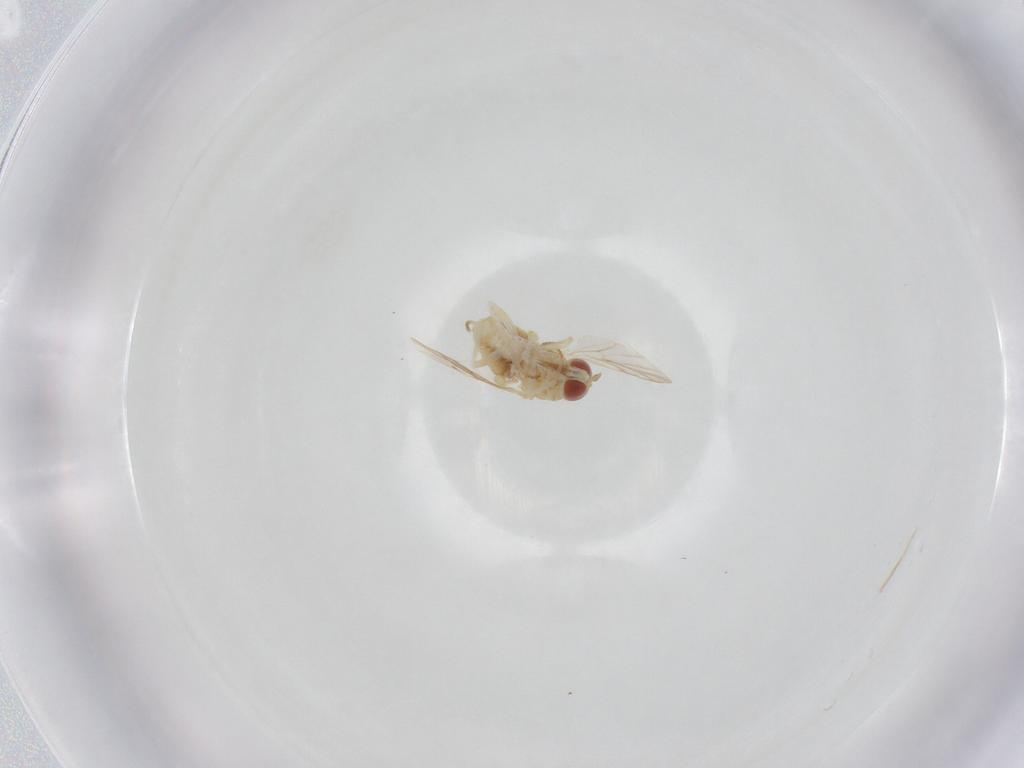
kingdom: Animalia
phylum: Arthropoda
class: Insecta
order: Diptera
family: Bombyliidae
